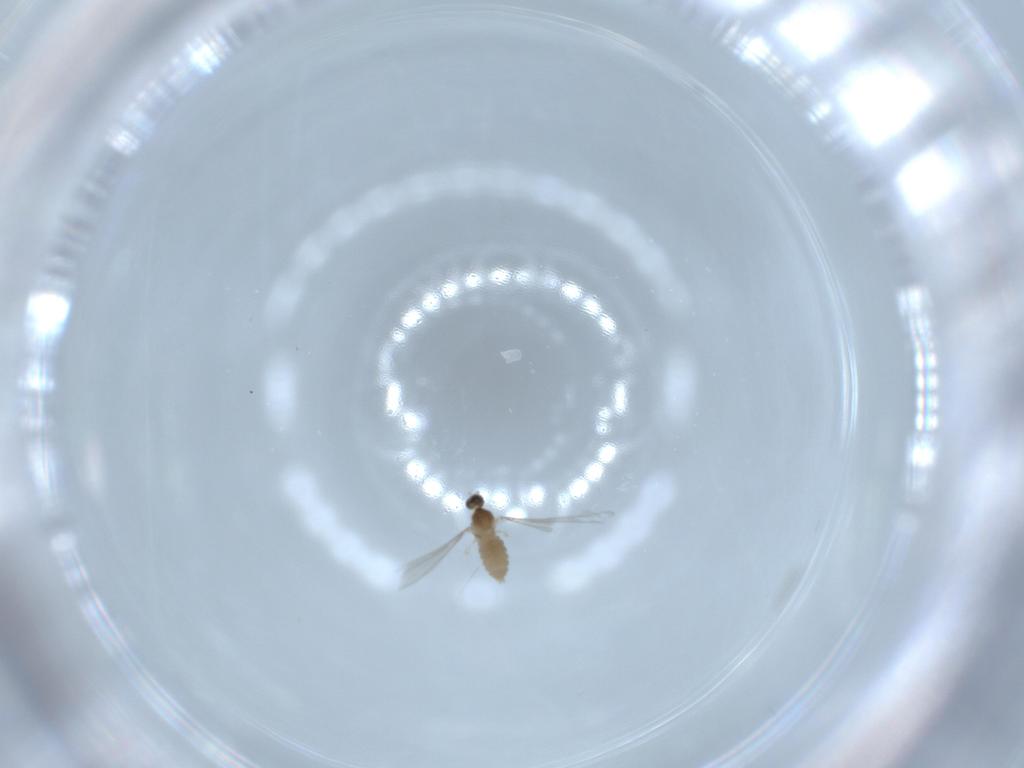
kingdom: Animalia
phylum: Arthropoda
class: Insecta
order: Diptera
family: Cecidomyiidae
